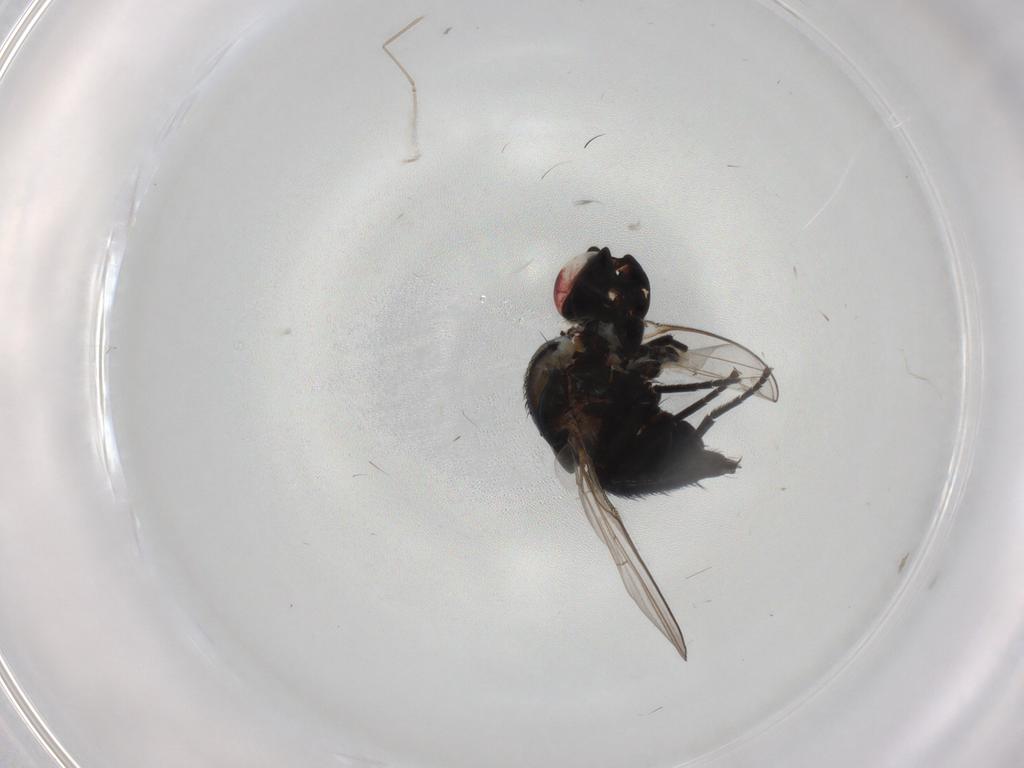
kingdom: Animalia
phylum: Arthropoda
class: Insecta
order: Diptera
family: Agromyzidae
